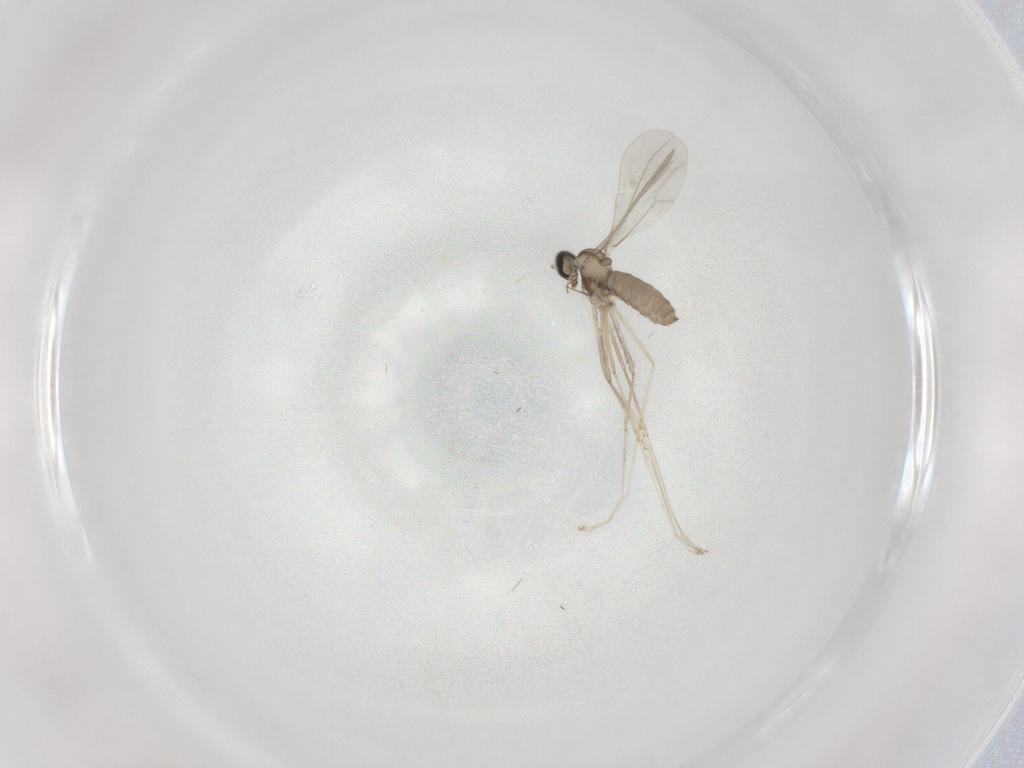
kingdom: Animalia
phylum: Arthropoda
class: Insecta
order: Diptera
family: Cecidomyiidae
